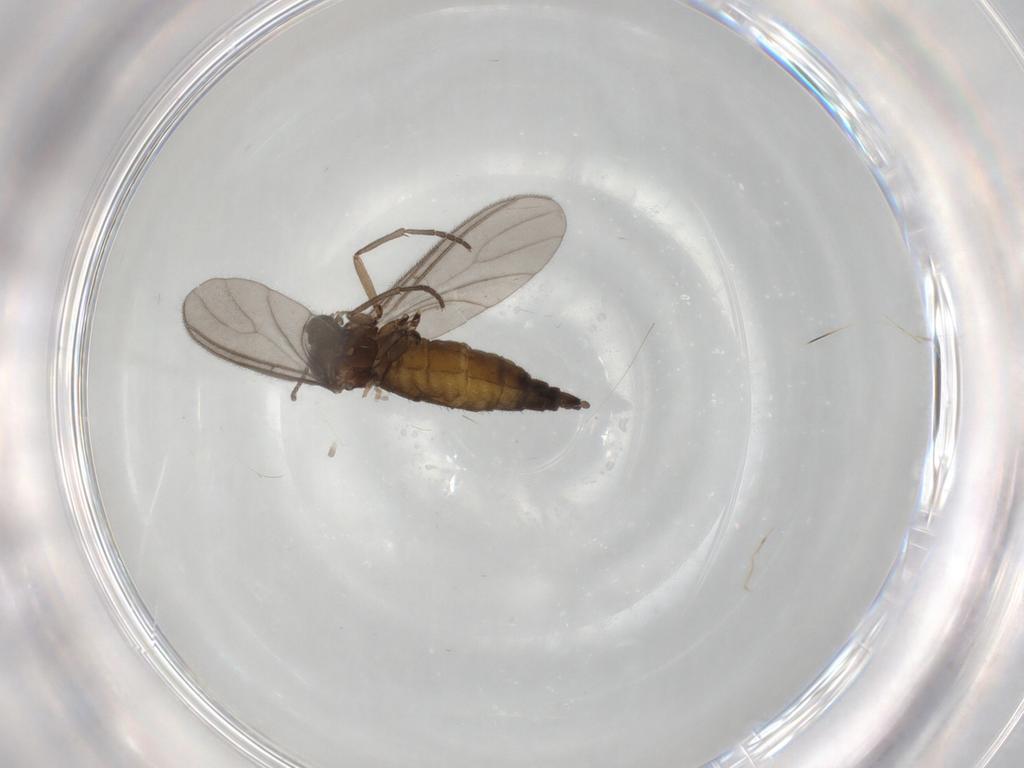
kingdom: Animalia
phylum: Arthropoda
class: Insecta
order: Diptera
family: Sciaridae
